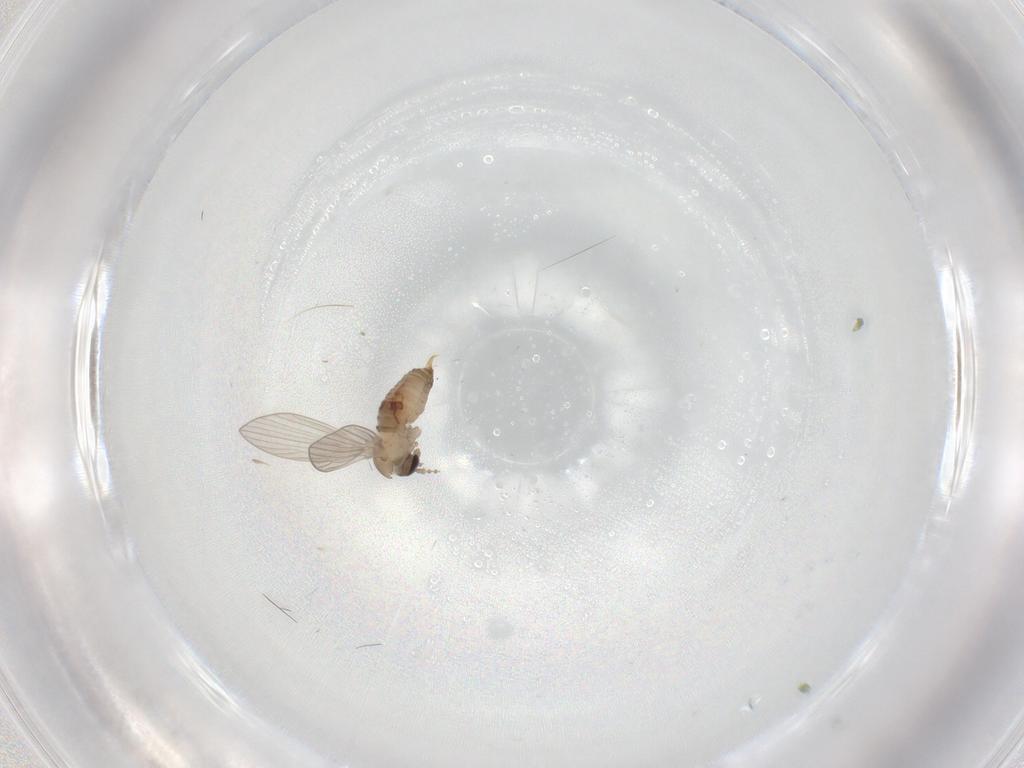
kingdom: Animalia
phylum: Arthropoda
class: Insecta
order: Diptera
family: Psychodidae
